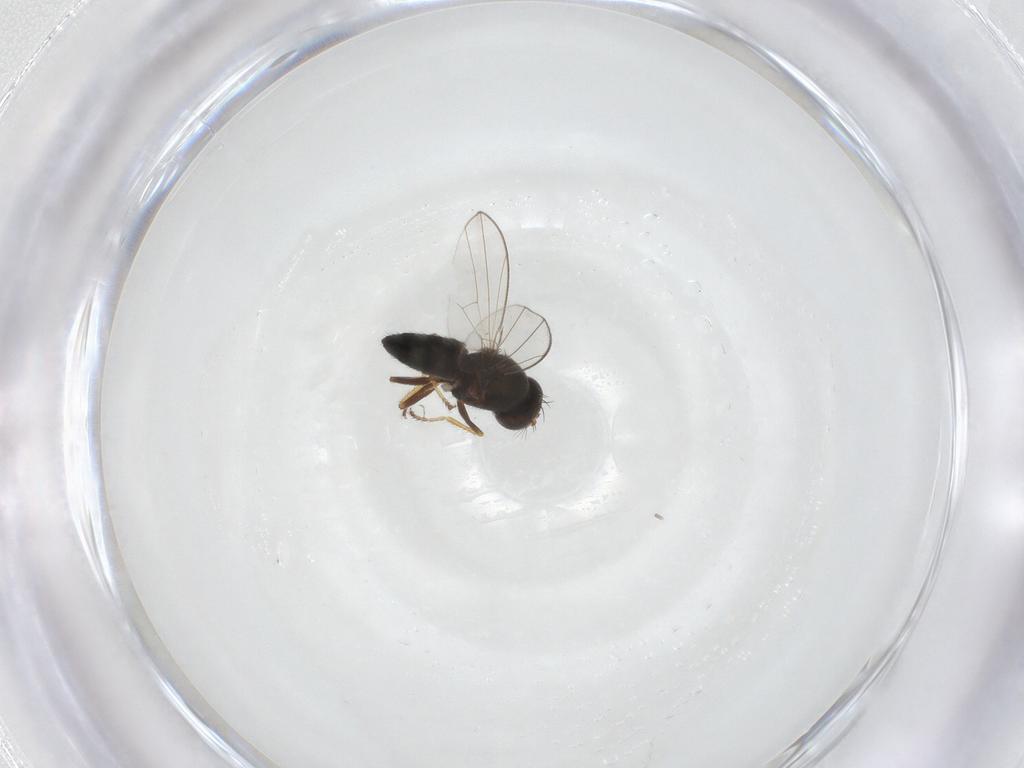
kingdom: Animalia
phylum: Arthropoda
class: Insecta
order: Diptera
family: Ephydridae
